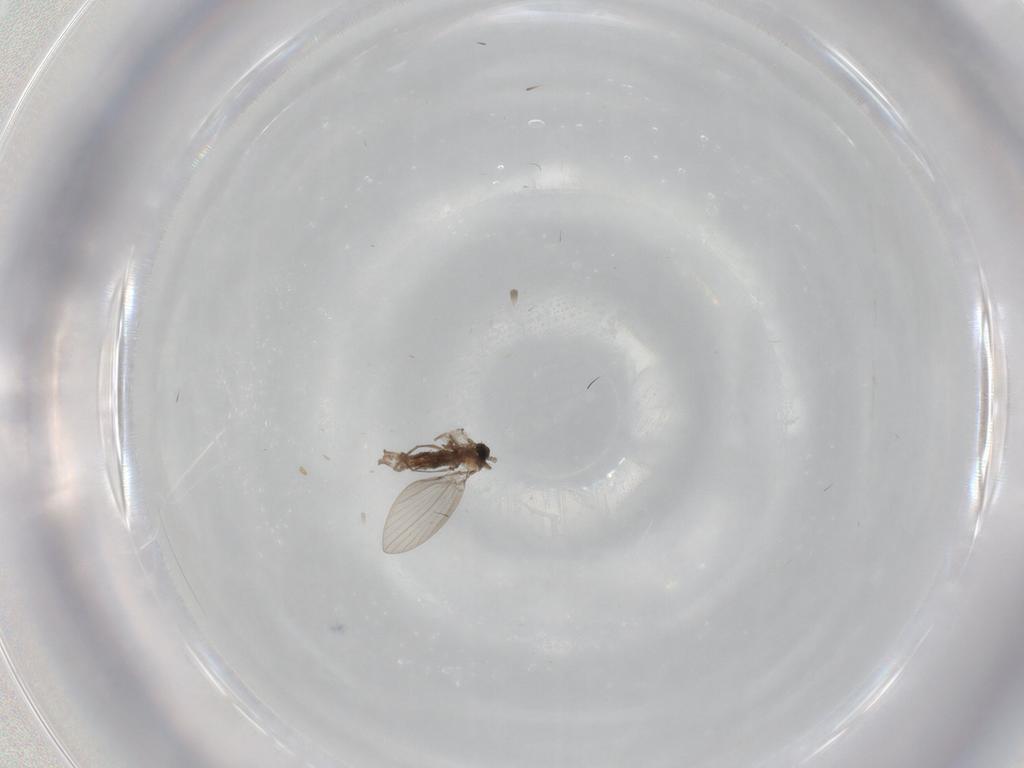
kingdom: Animalia
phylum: Arthropoda
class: Insecta
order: Diptera
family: Psychodidae
